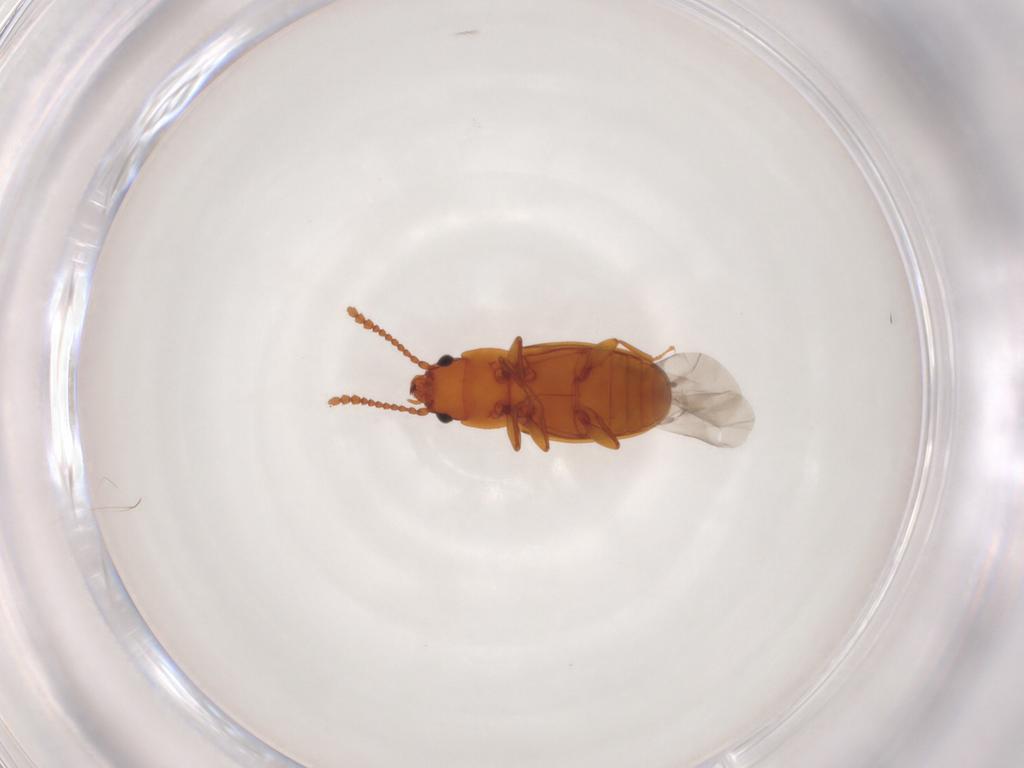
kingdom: Animalia
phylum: Arthropoda
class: Insecta
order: Coleoptera
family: Laemophloeidae
